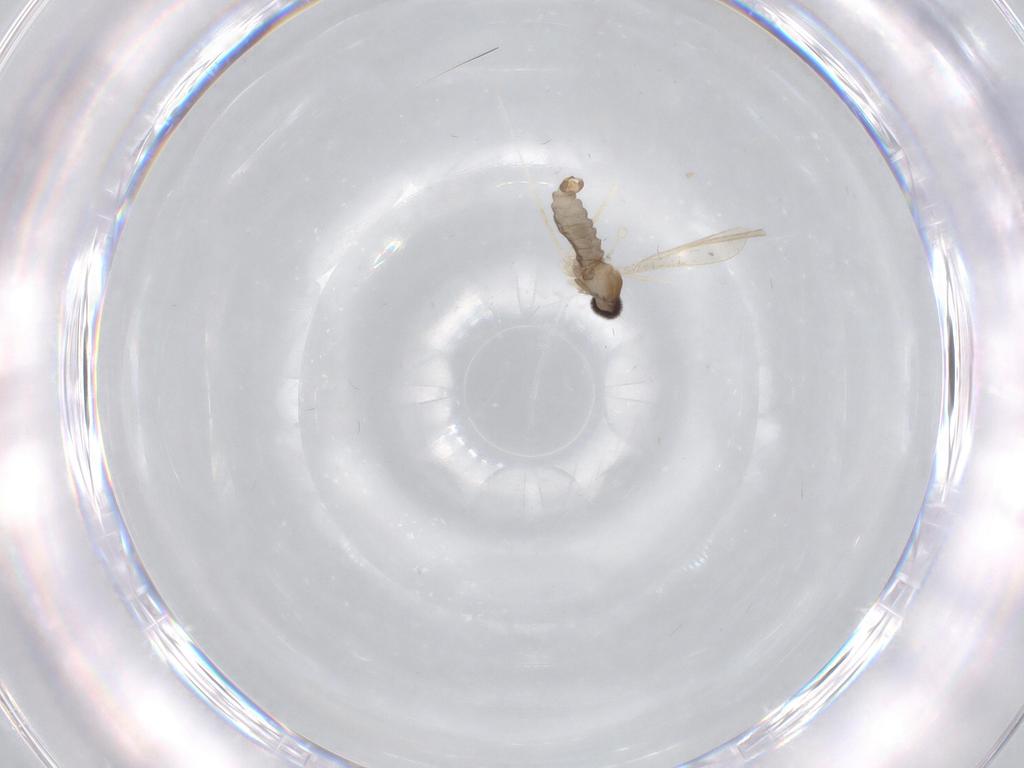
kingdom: Animalia
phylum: Arthropoda
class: Insecta
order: Diptera
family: Cecidomyiidae
